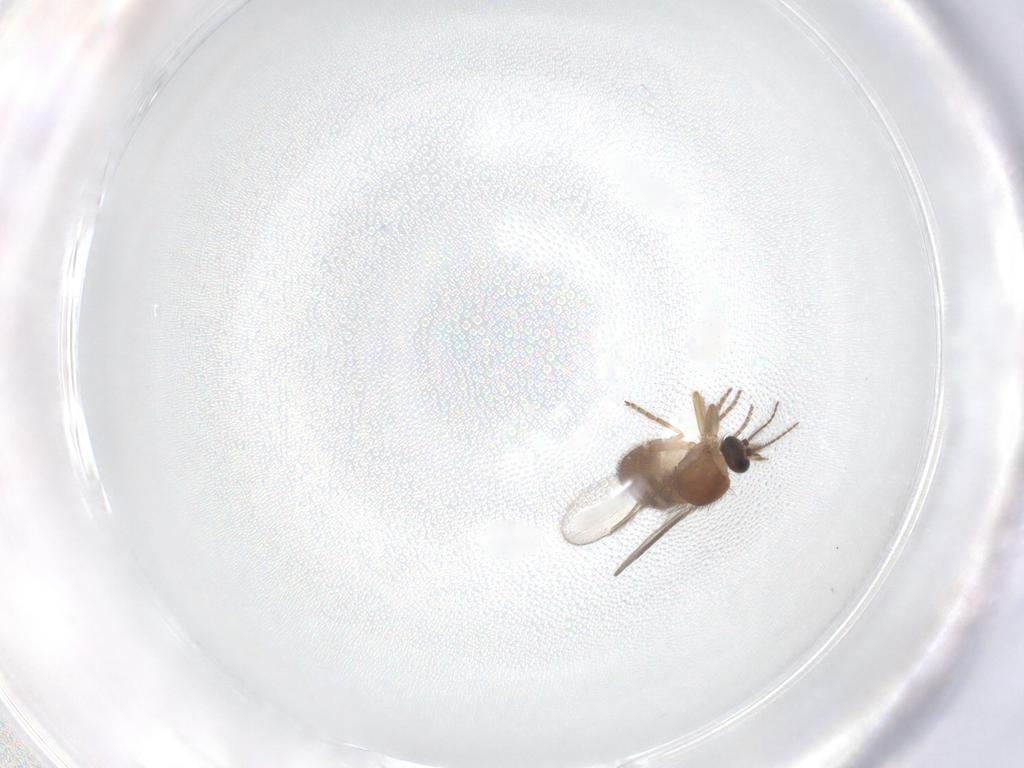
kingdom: Animalia
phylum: Arthropoda
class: Insecta
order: Diptera
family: Ceratopogonidae
